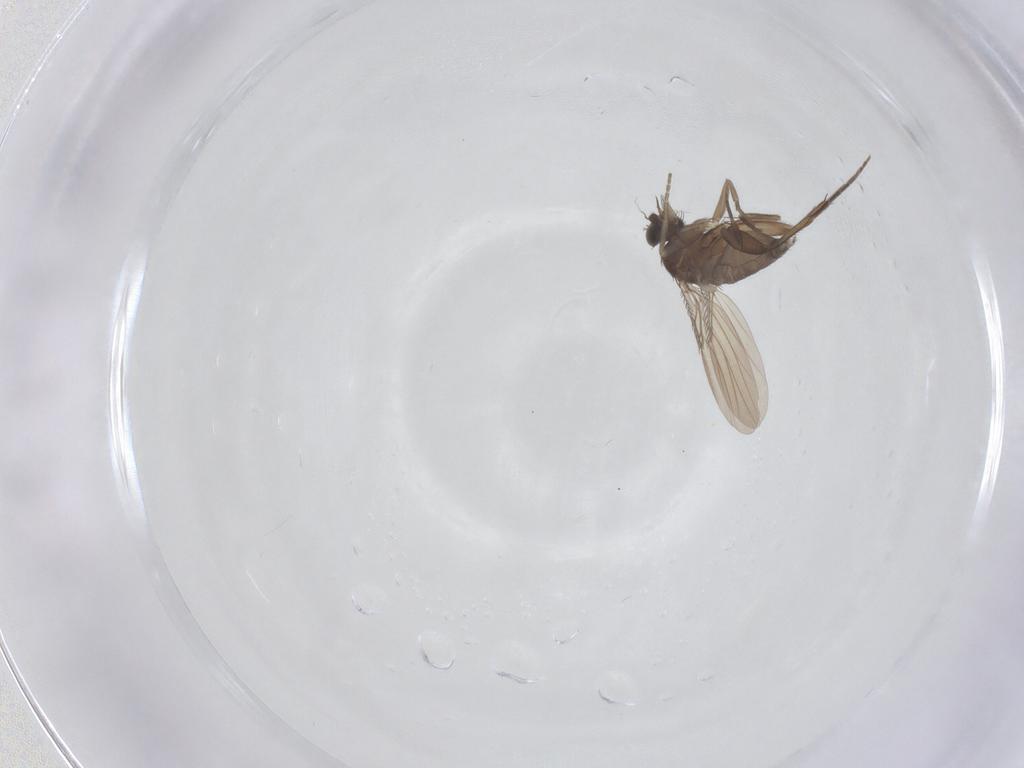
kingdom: Animalia
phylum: Arthropoda
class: Insecta
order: Diptera
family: Phoridae
